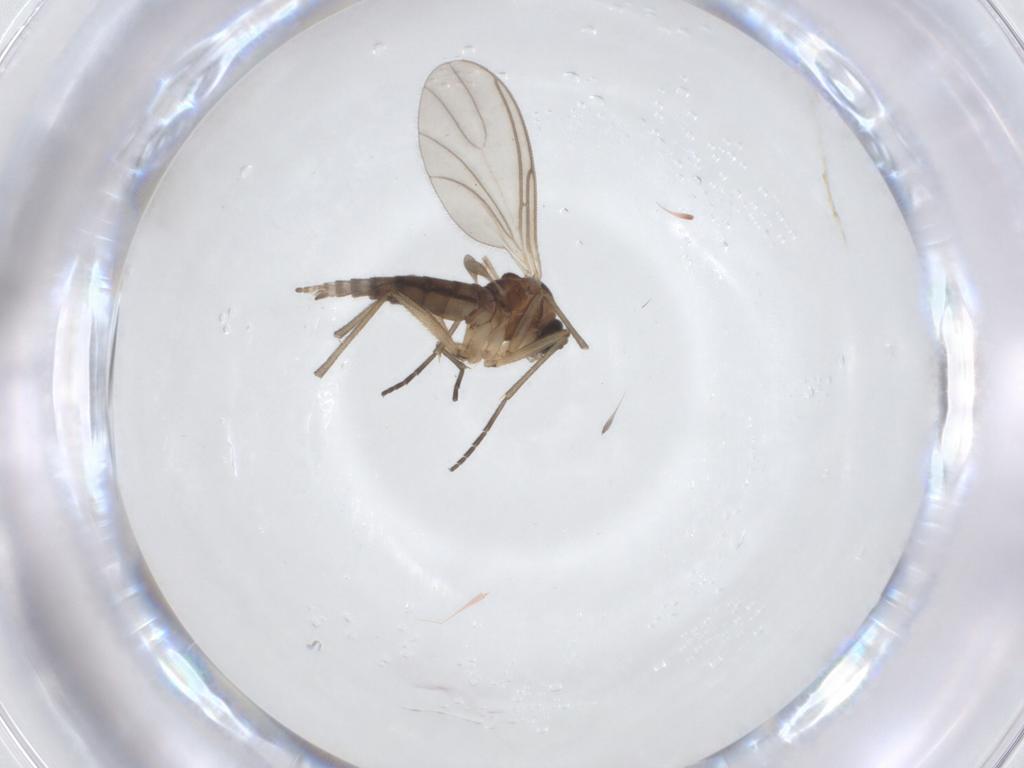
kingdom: Animalia
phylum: Arthropoda
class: Insecta
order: Diptera
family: Sciaridae
